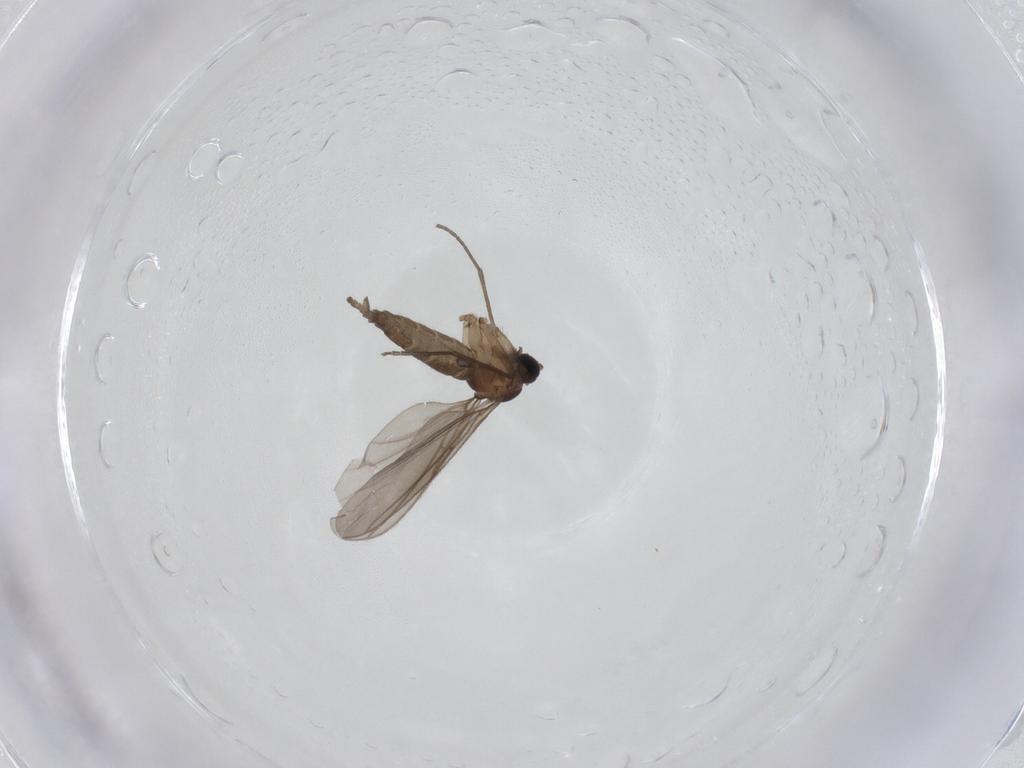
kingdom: Animalia
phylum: Arthropoda
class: Insecta
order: Diptera
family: Sciaridae
